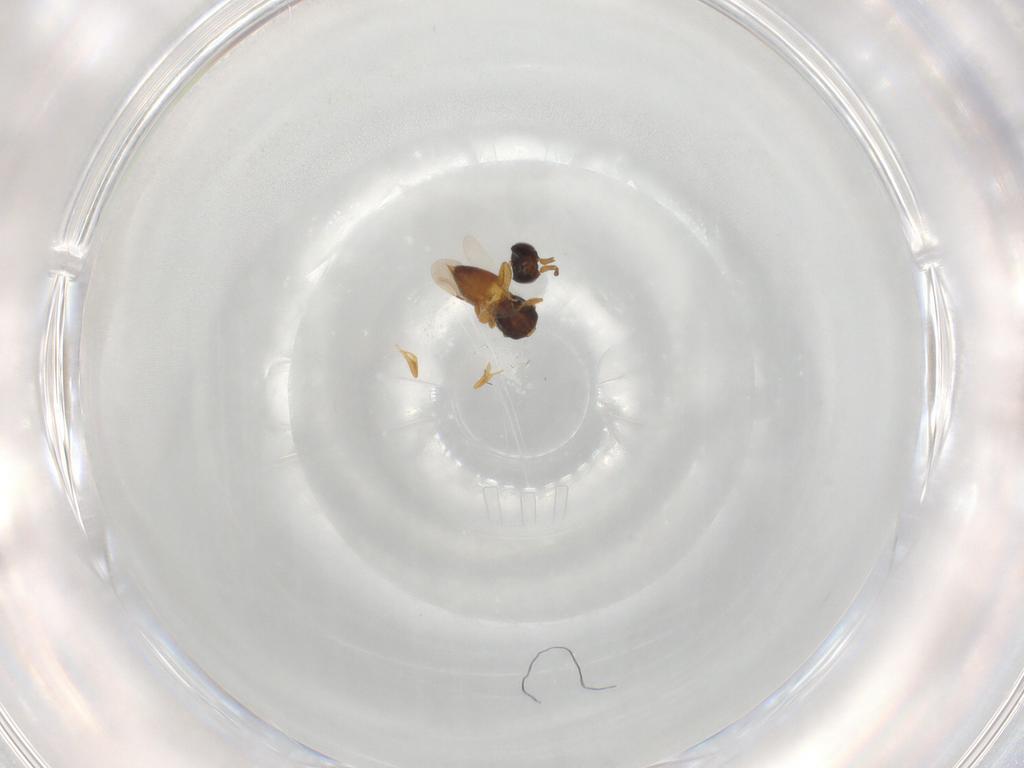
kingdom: Animalia
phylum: Arthropoda
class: Insecta
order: Hymenoptera
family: Ceraphronidae
